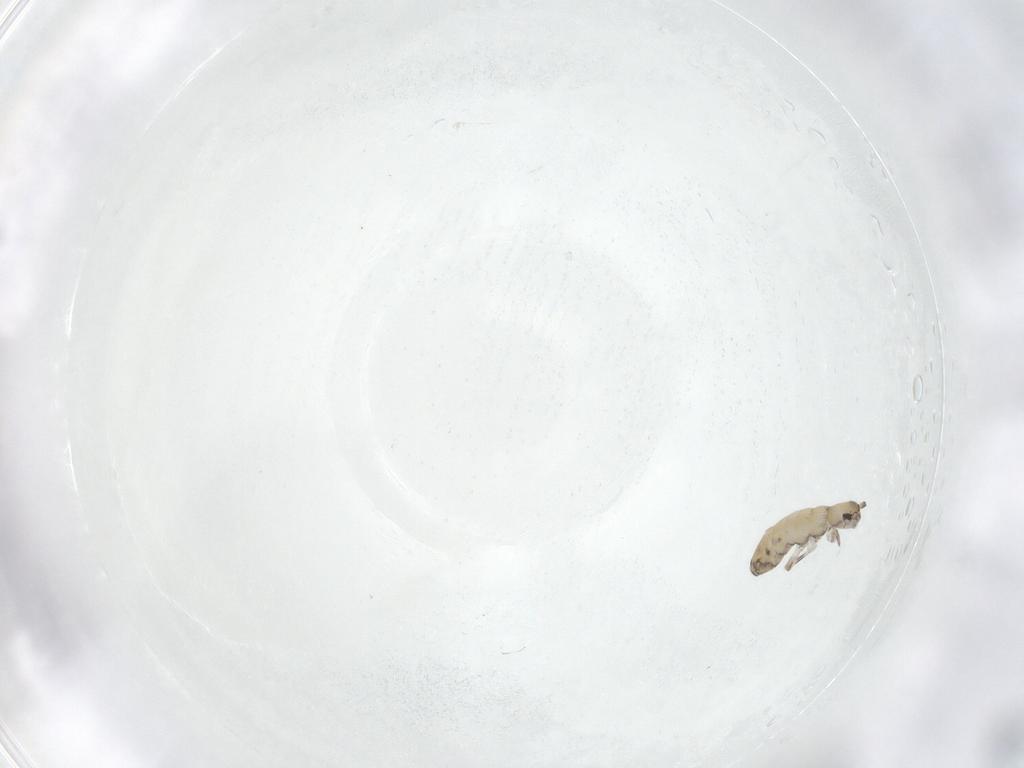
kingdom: Animalia
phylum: Arthropoda
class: Collembola
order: Entomobryomorpha
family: Entomobryidae
